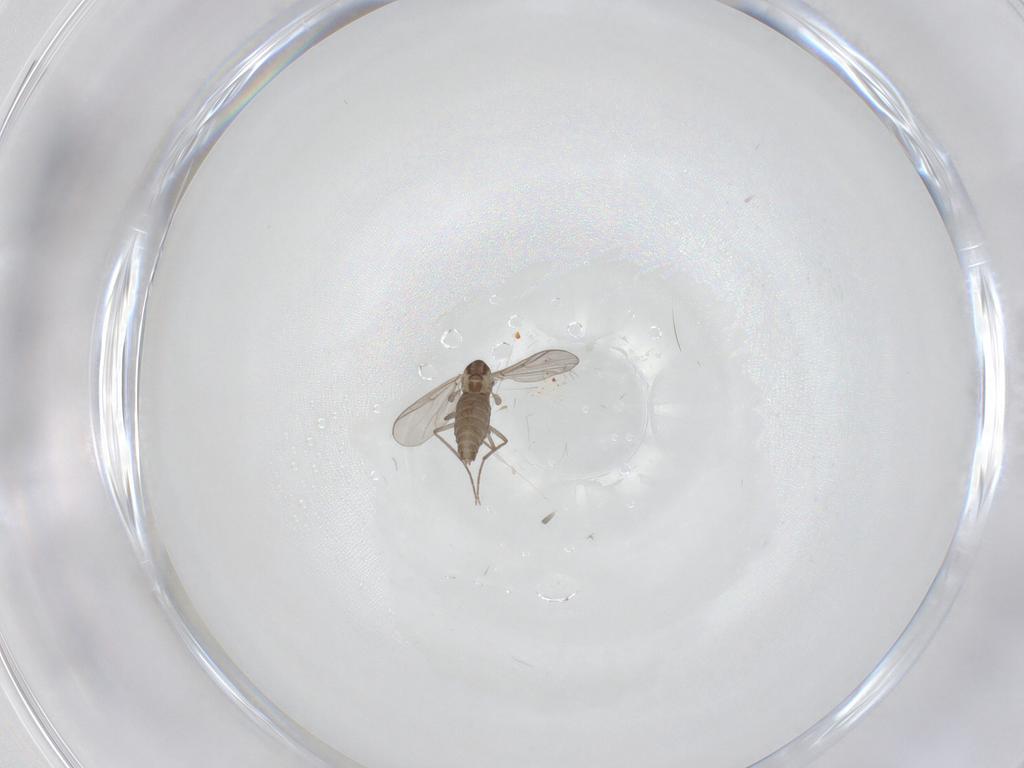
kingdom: Animalia
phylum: Arthropoda
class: Insecta
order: Diptera
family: Chironomidae
